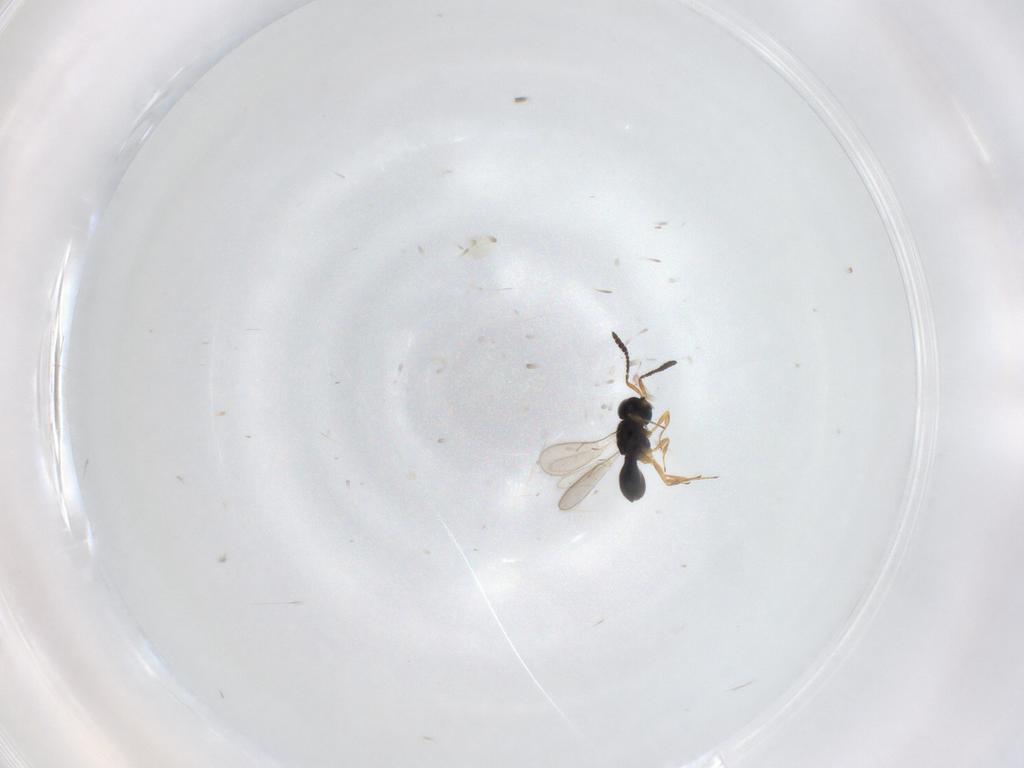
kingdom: Animalia
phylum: Arthropoda
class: Insecta
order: Hymenoptera
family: Scelionidae
